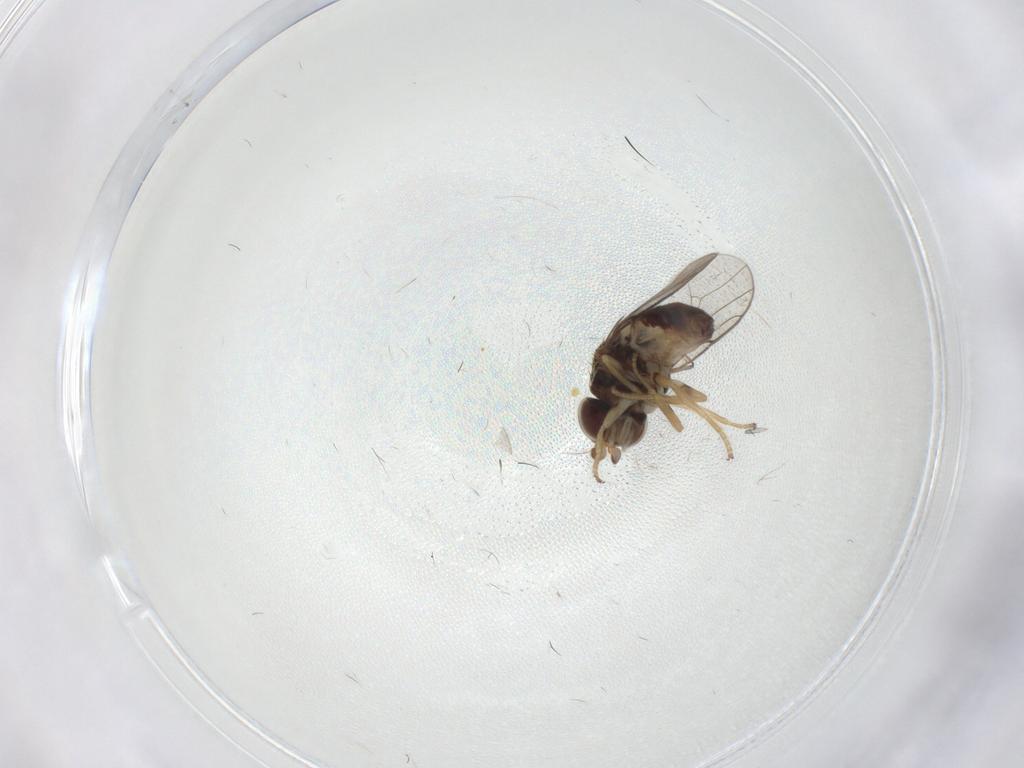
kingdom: Animalia
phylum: Arthropoda
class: Insecta
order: Diptera
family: Chloropidae
